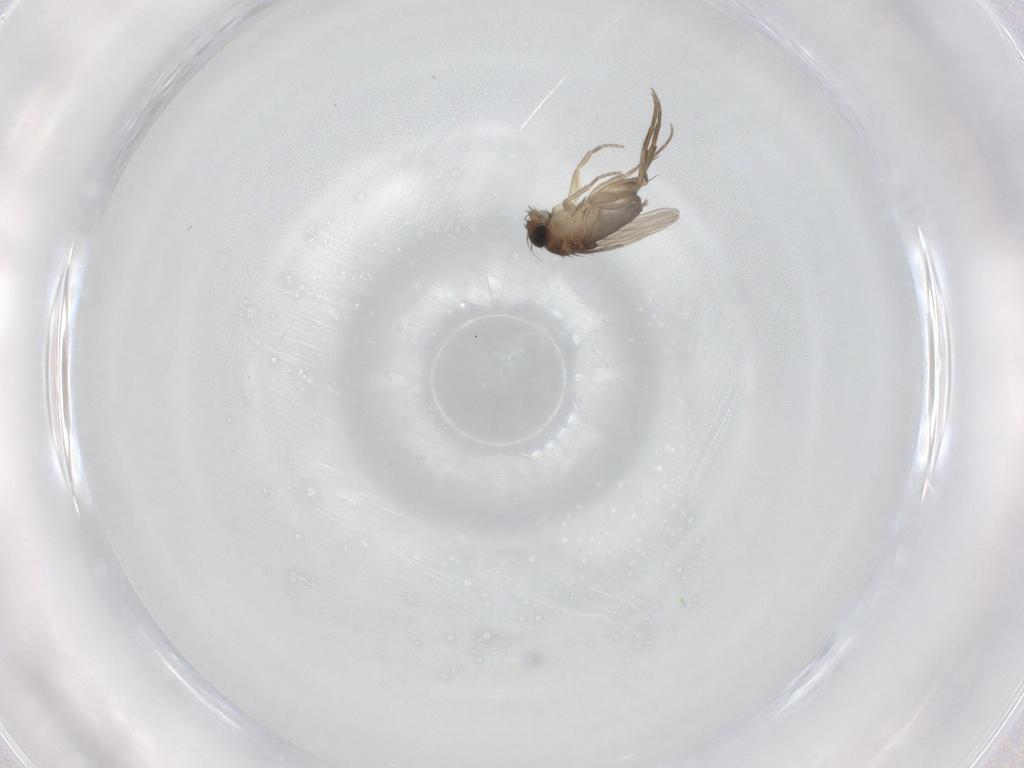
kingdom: Animalia
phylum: Arthropoda
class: Insecta
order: Diptera
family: Phoridae
